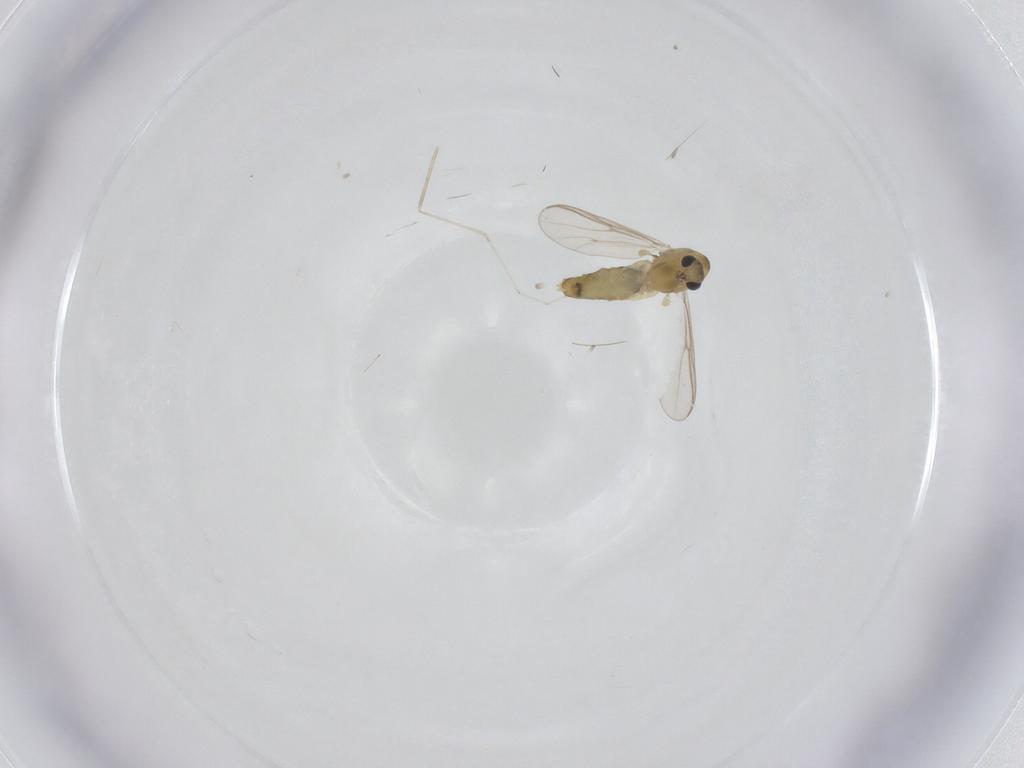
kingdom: Animalia
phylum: Arthropoda
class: Insecta
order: Diptera
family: Chironomidae
